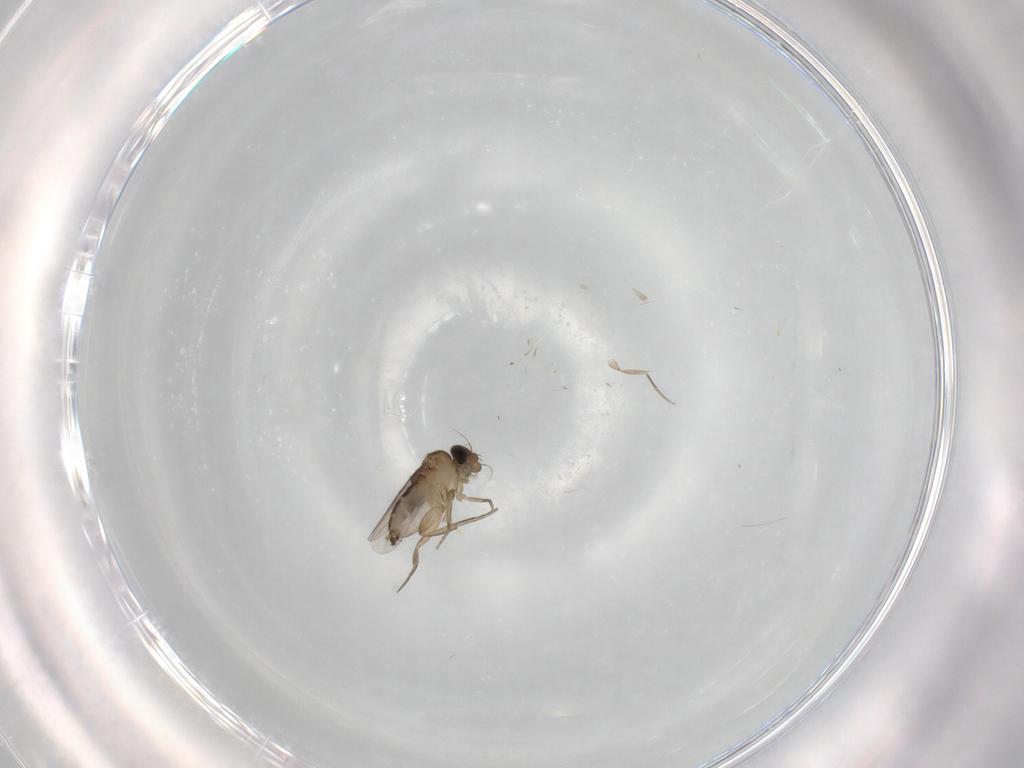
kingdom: Animalia
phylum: Arthropoda
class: Insecta
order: Diptera
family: Phoridae
